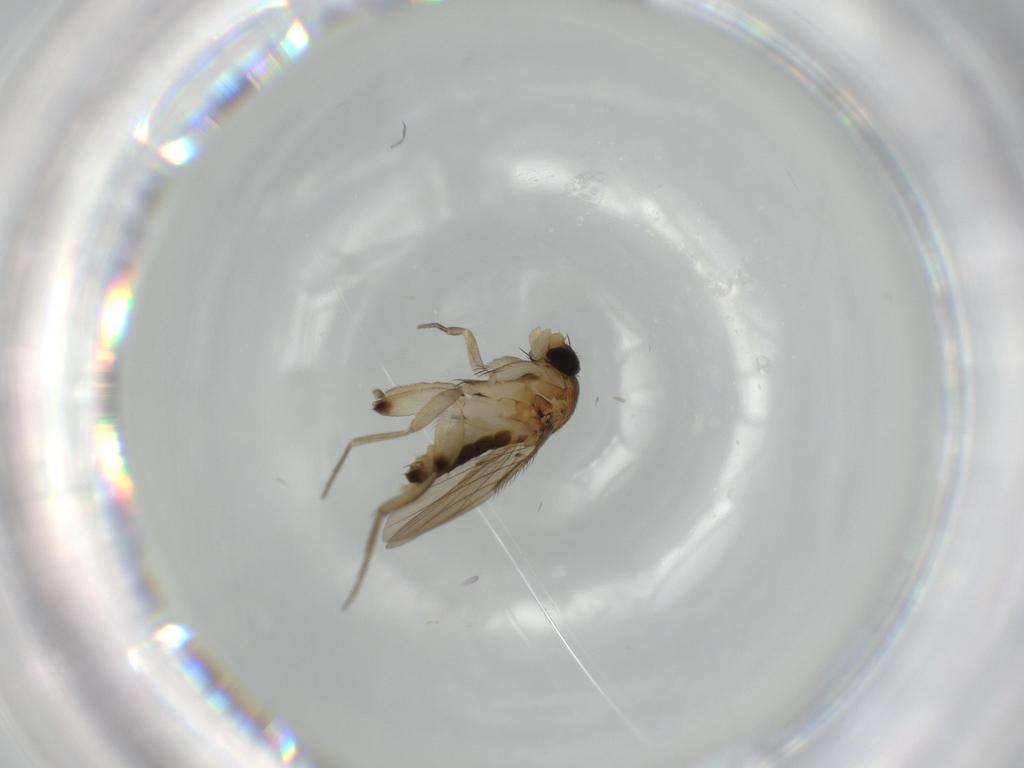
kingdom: Animalia
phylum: Arthropoda
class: Insecta
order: Diptera
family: Phoridae
